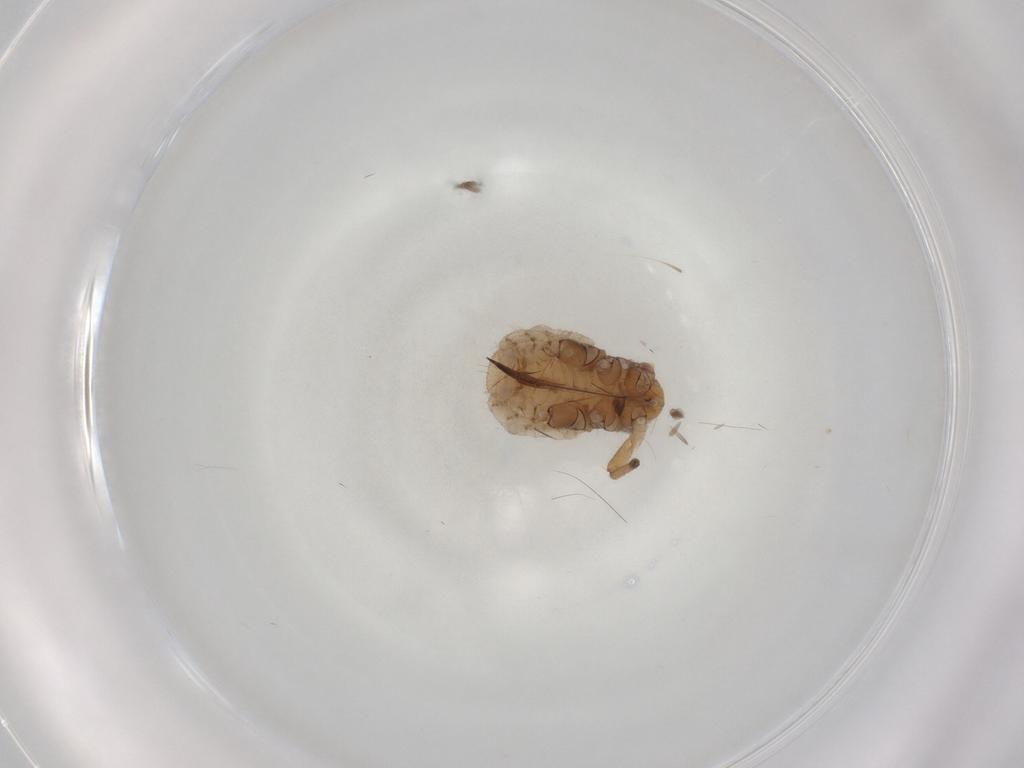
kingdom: Animalia
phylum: Arthropoda
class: Insecta
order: Hemiptera
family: Aphididae
